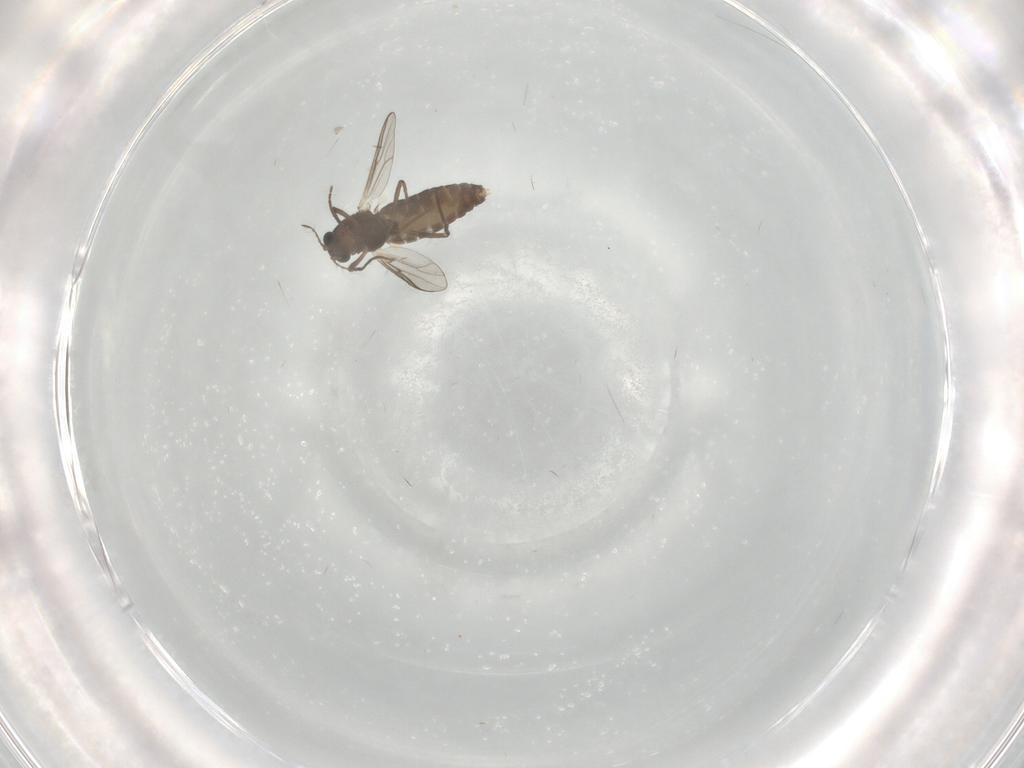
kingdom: Animalia
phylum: Arthropoda
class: Insecta
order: Diptera
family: Chironomidae
